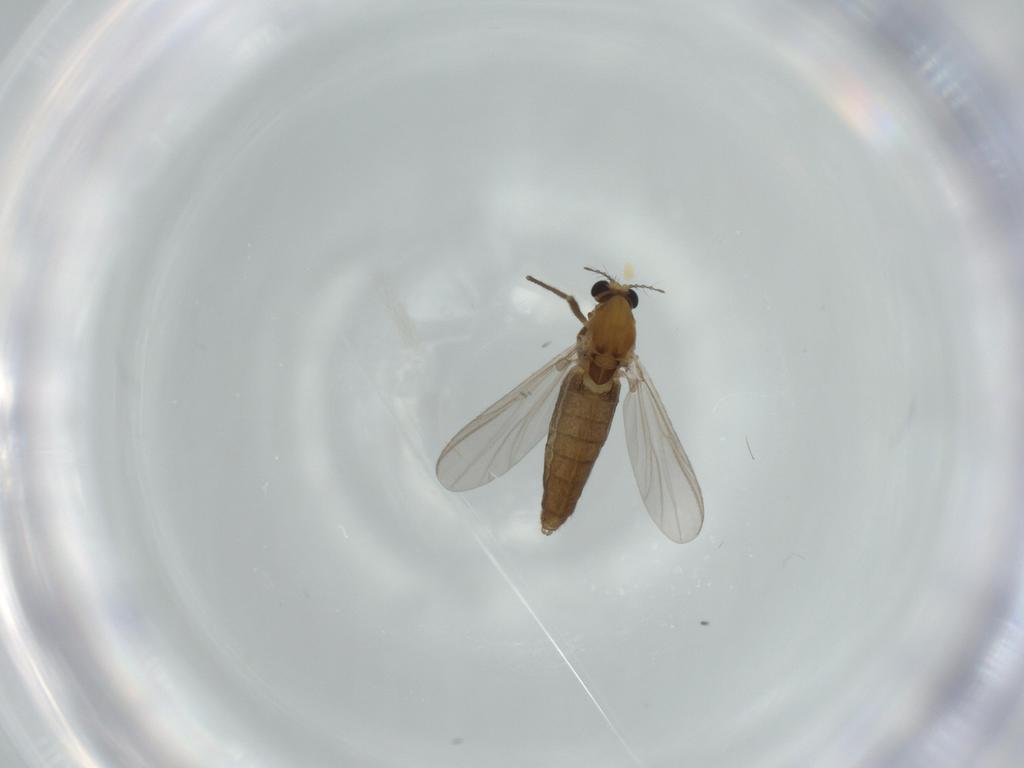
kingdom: Animalia
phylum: Arthropoda
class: Insecta
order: Diptera
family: Chironomidae
